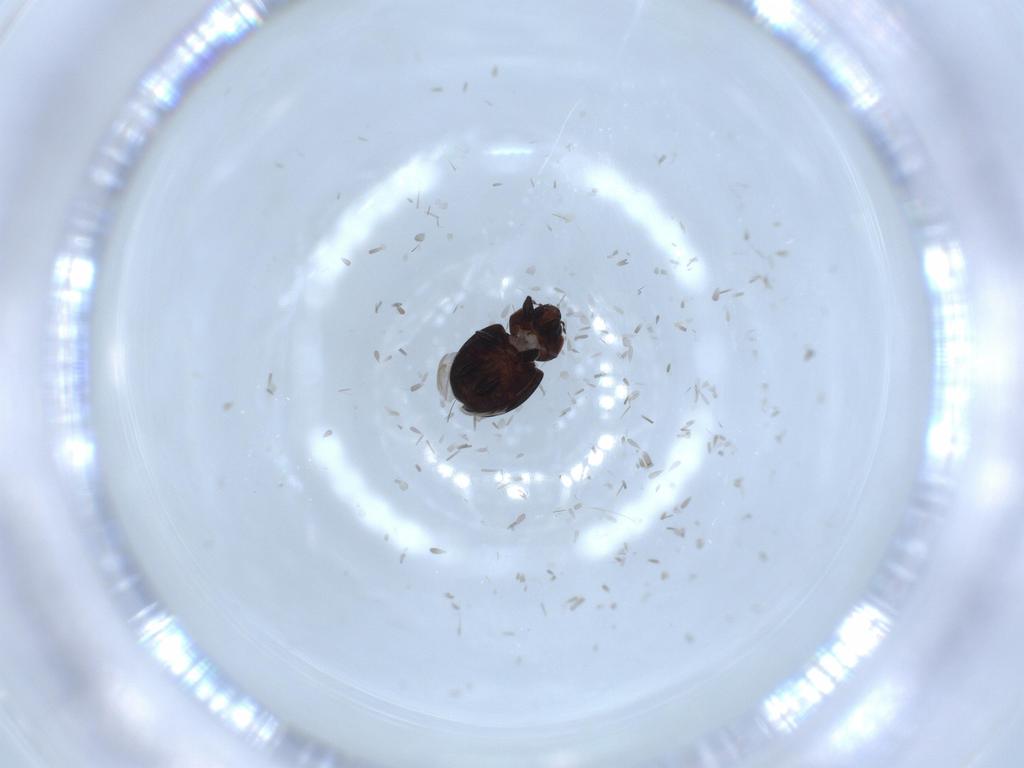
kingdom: Animalia
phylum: Arthropoda
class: Insecta
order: Coleoptera
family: Coccinellidae
